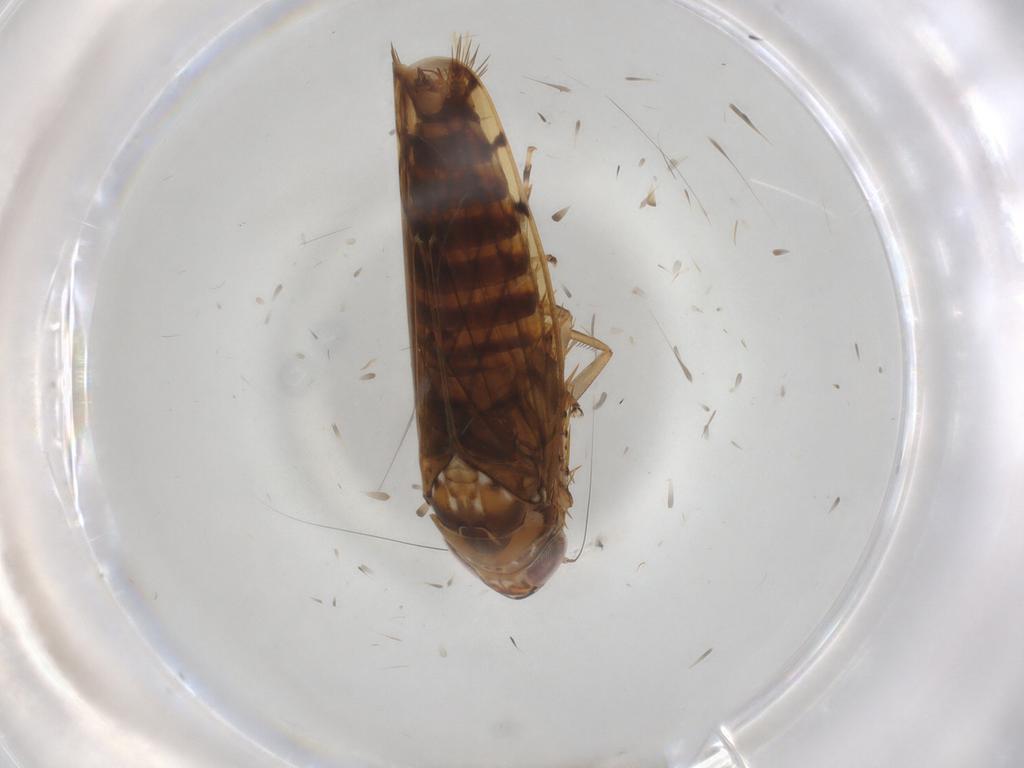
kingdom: Animalia
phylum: Arthropoda
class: Insecta
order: Hemiptera
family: Cicadellidae
